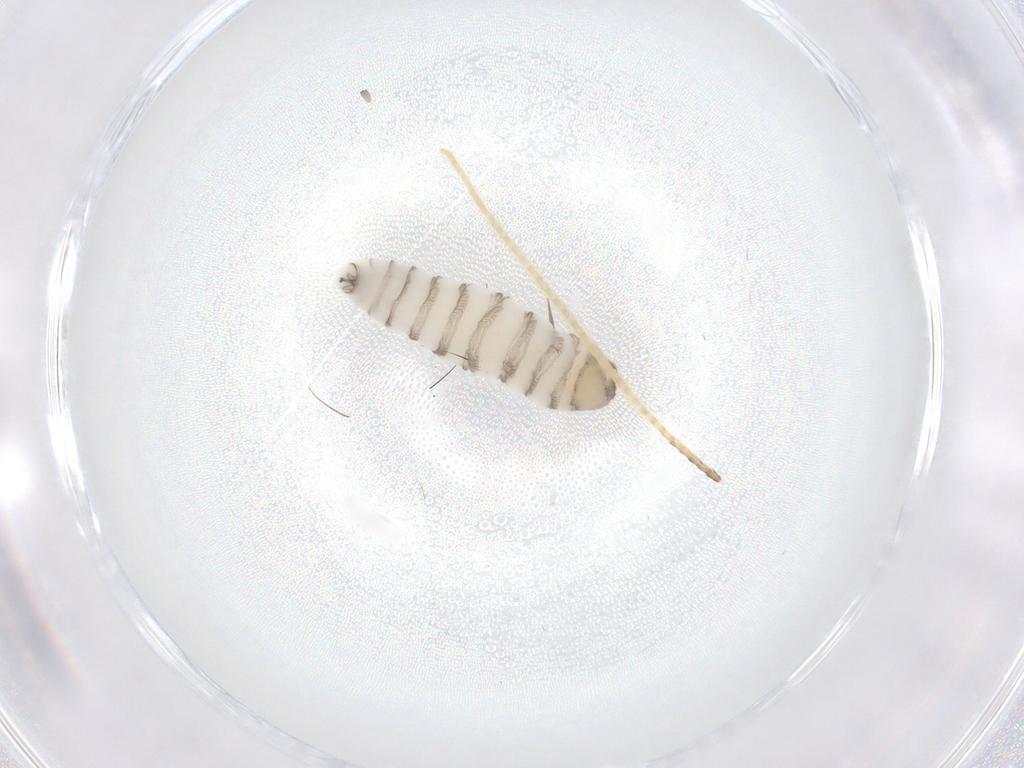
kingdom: Animalia
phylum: Arthropoda
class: Insecta
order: Diptera
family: Sarcophagidae
